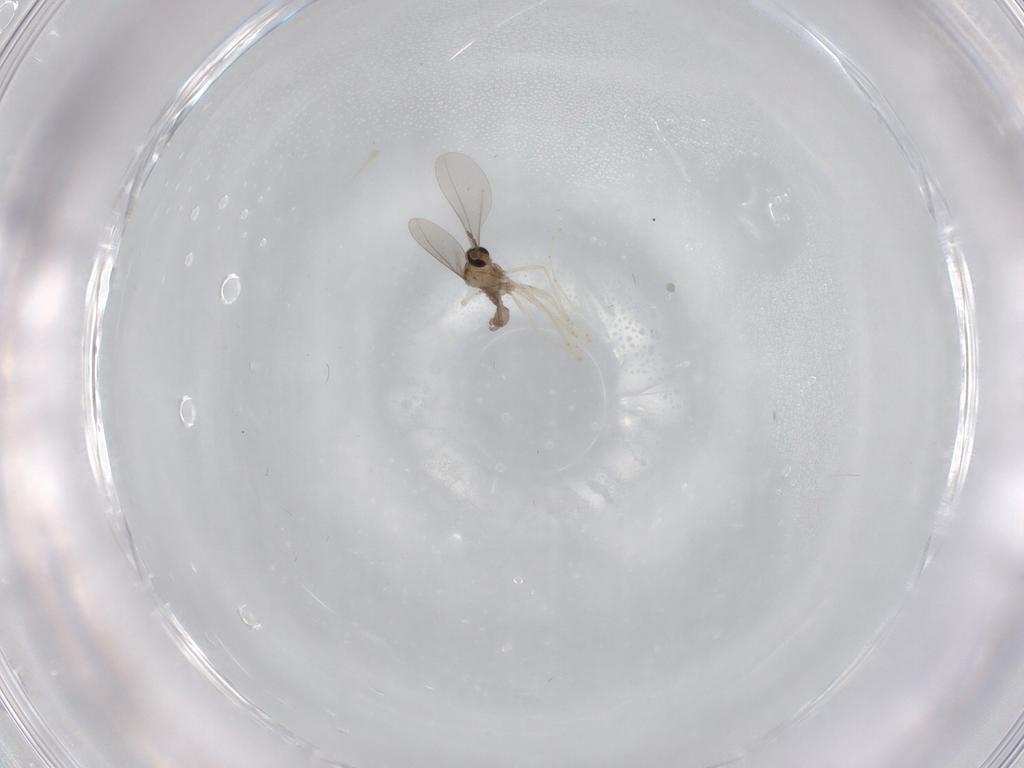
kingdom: Animalia
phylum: Arthropoda
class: Insecta
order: Diptera
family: Cecidomyiidae
